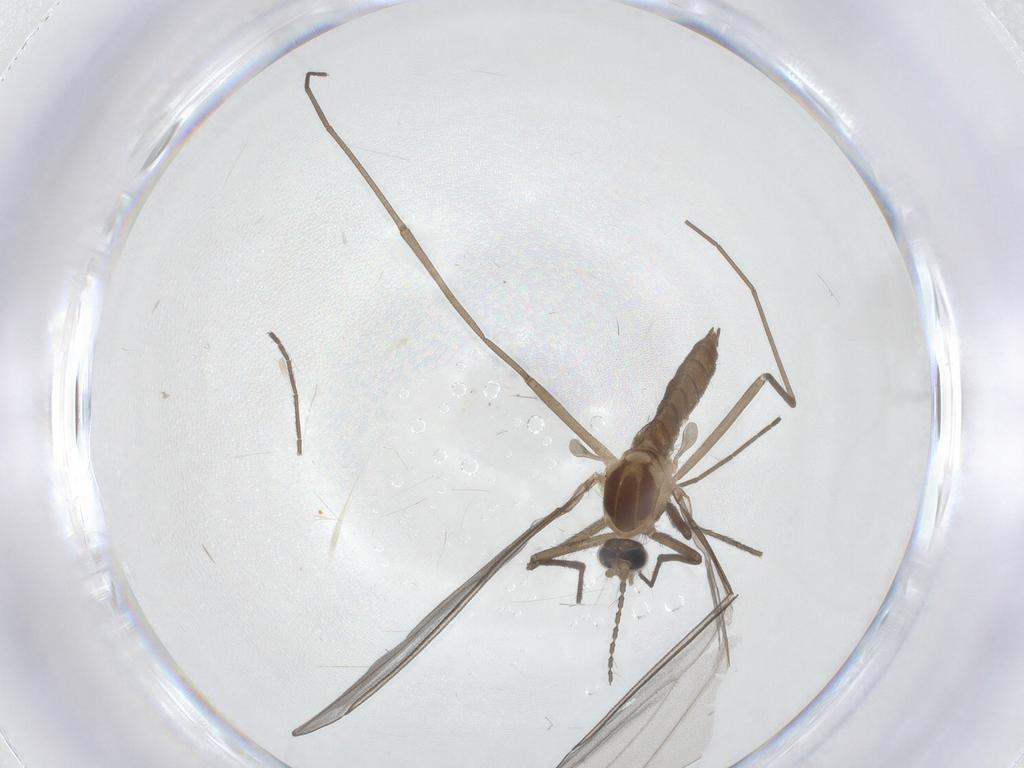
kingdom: Animalia
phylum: Arthropoda
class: Insecta
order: Diptera
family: Cecidomyiidae
